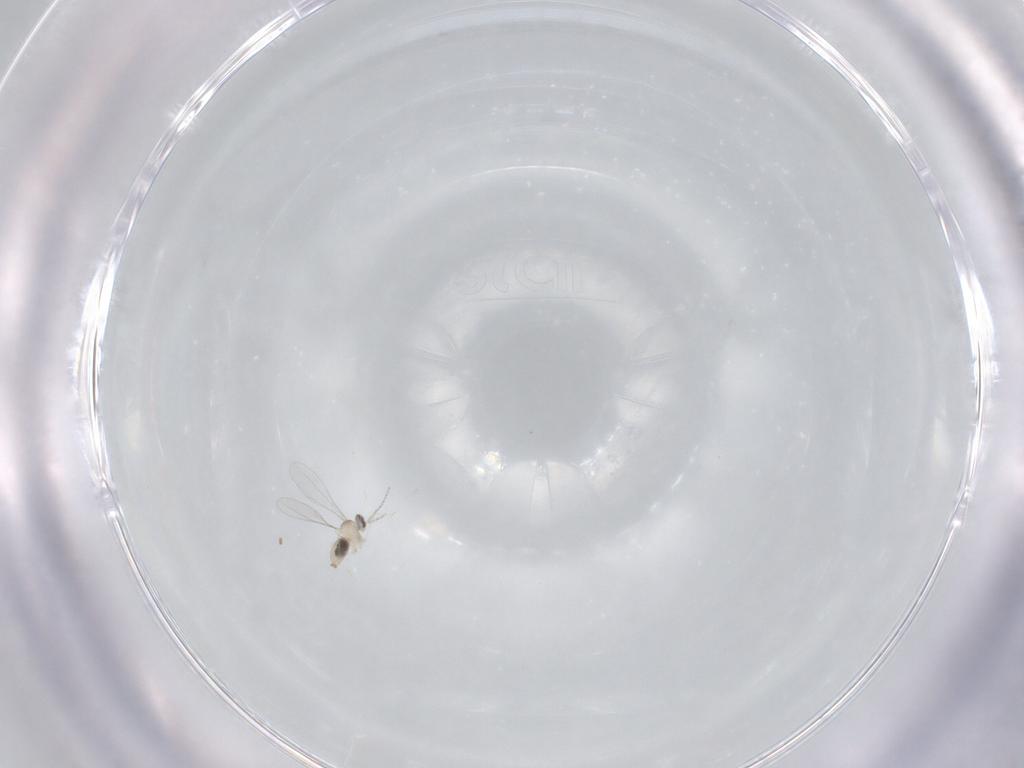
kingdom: Animalia
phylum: Arthropoda
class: Insecta
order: Diptera
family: Cecidomyiidae
